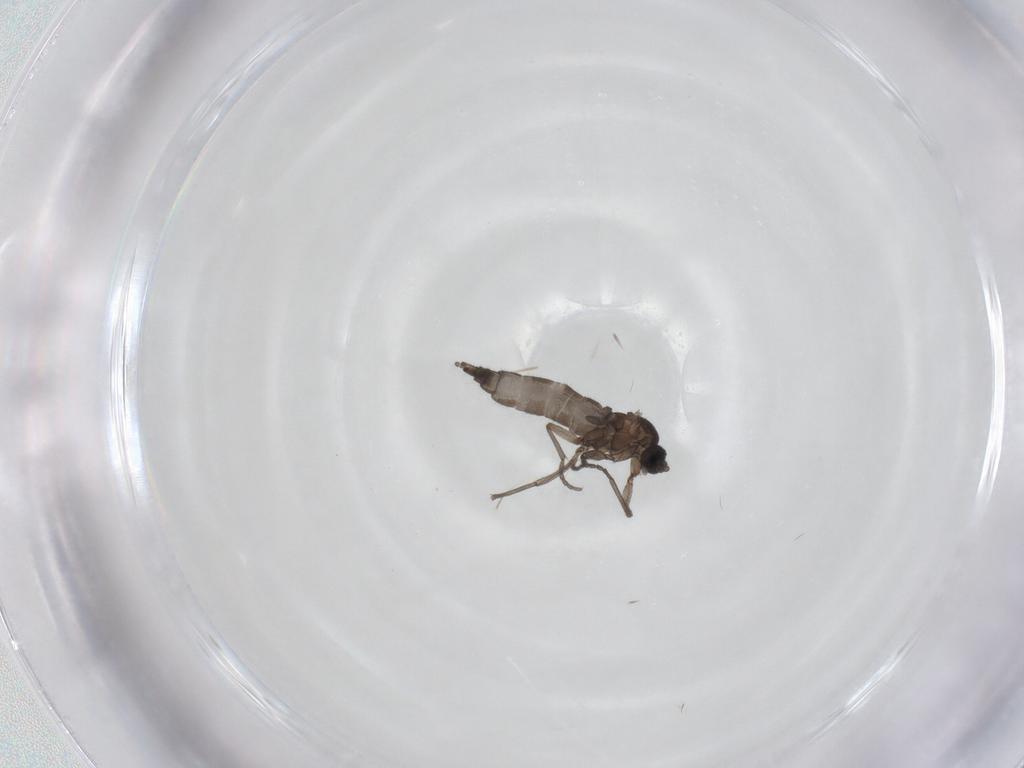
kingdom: Animalia
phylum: Arthropoda
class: Insecta
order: Diptera
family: Sciaridae
